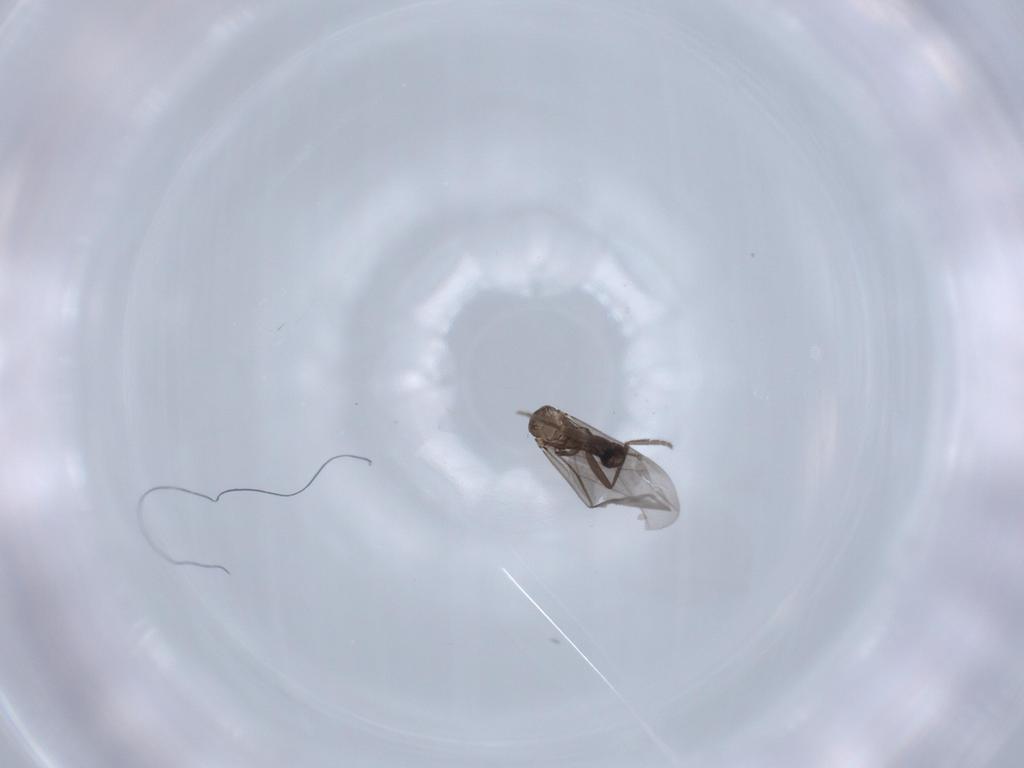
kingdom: Animalia
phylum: Arthropoda
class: Insecta
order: Diptera
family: Phoridae
